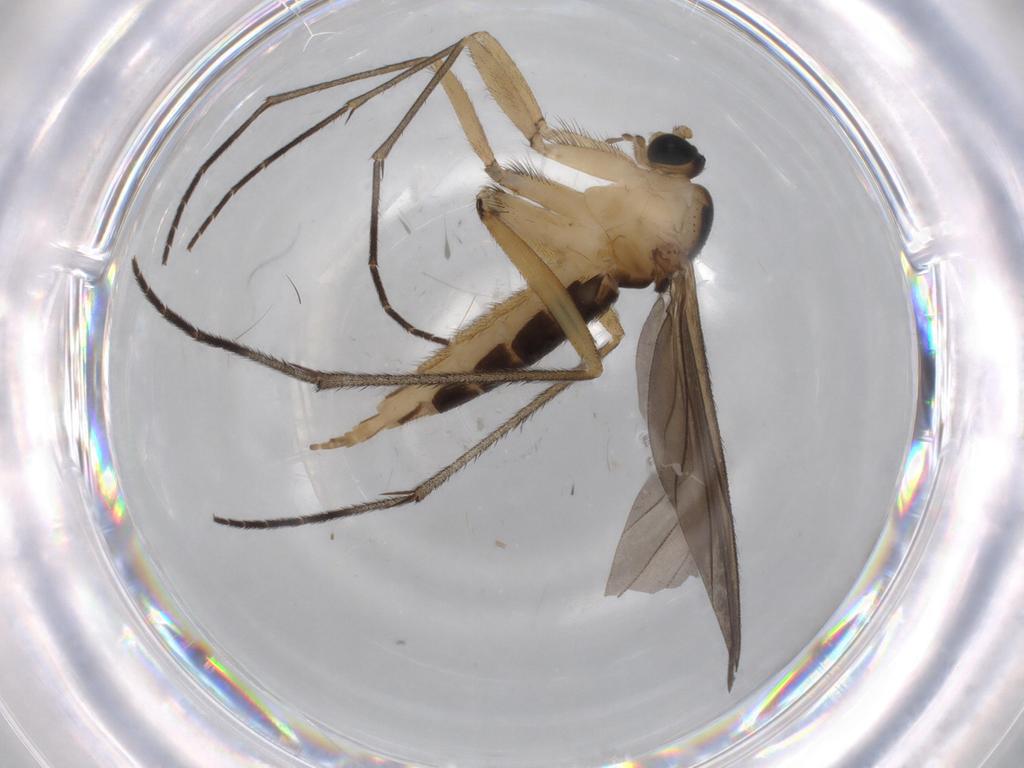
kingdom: Animalia
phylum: Arthropoda
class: Insecta
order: Diptera
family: Sciaridae
